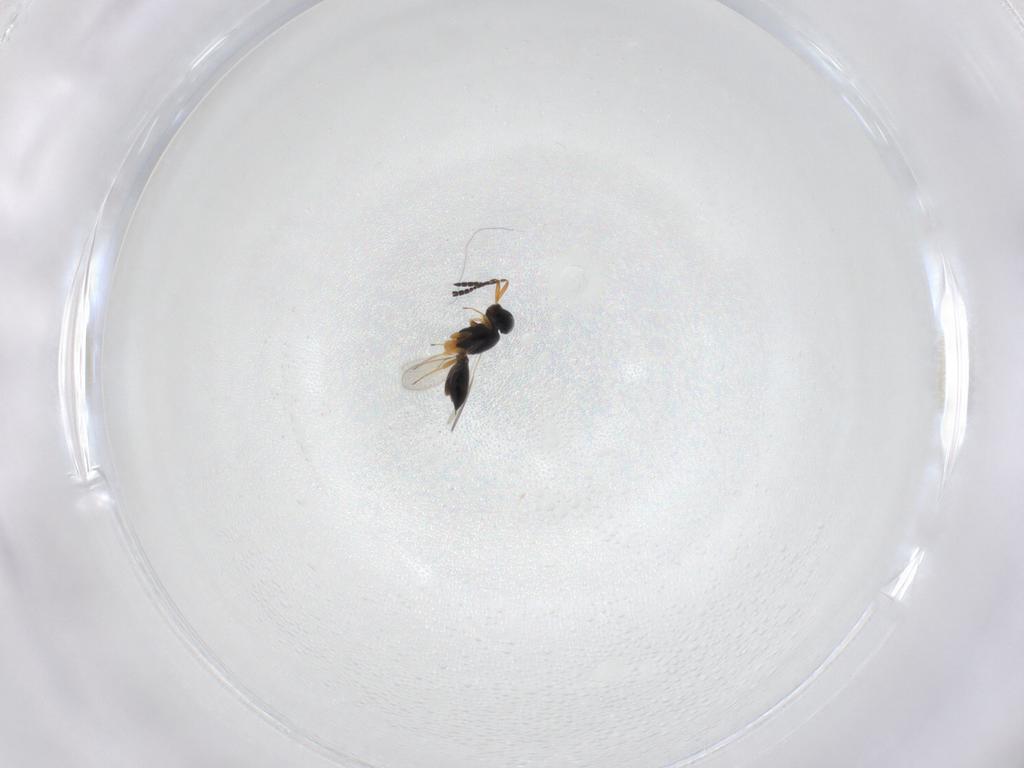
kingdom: Animalia
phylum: Arthropoda
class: Insecta
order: Hymenoptera
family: Scelionidae
